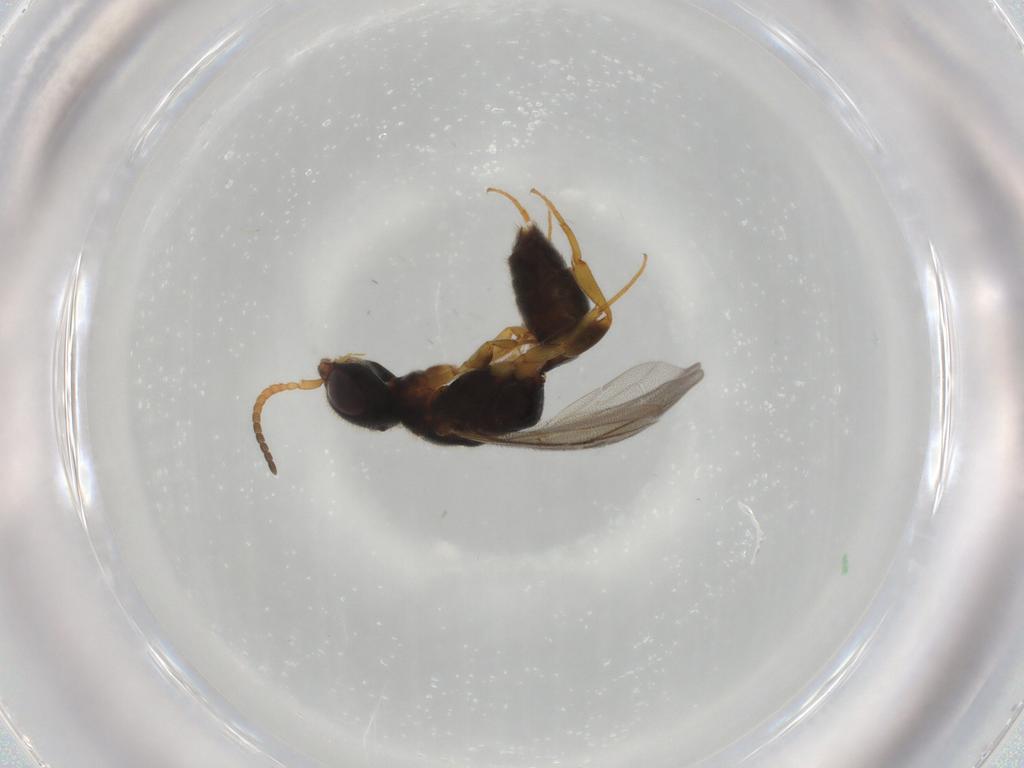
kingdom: Animalia
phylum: Arthropoda
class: Insecta
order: Hymenoptera
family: Bethylidae
